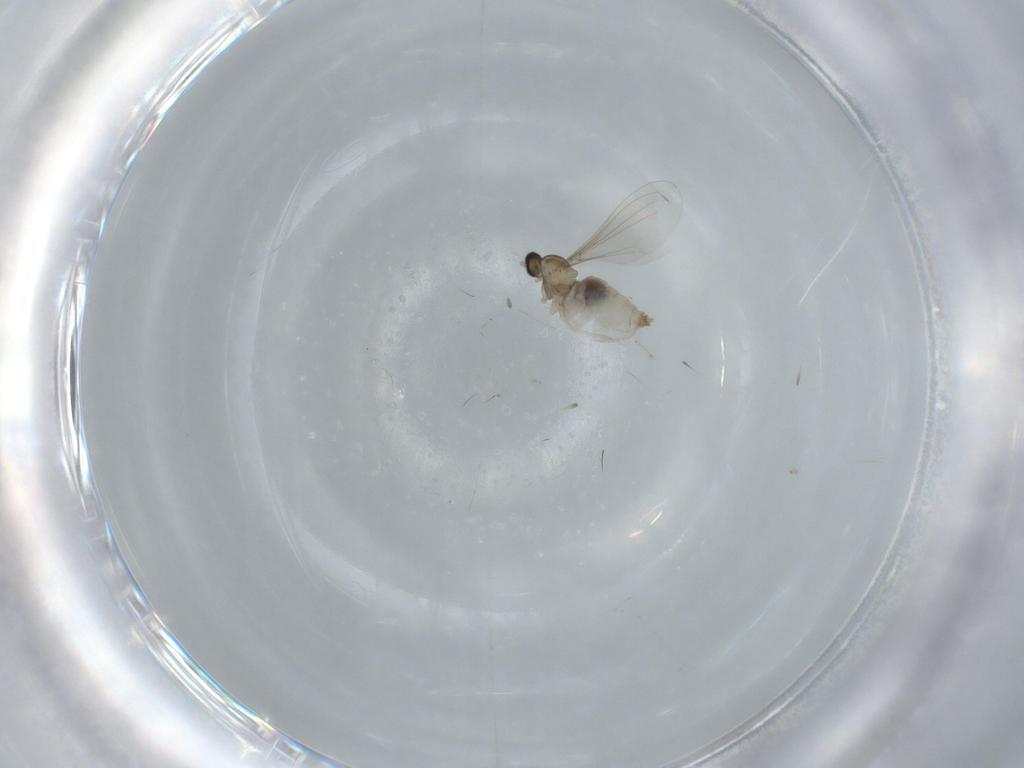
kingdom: Animalia
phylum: Arthropoda
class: Insecta
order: Diptera
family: Cecidomyiidae
